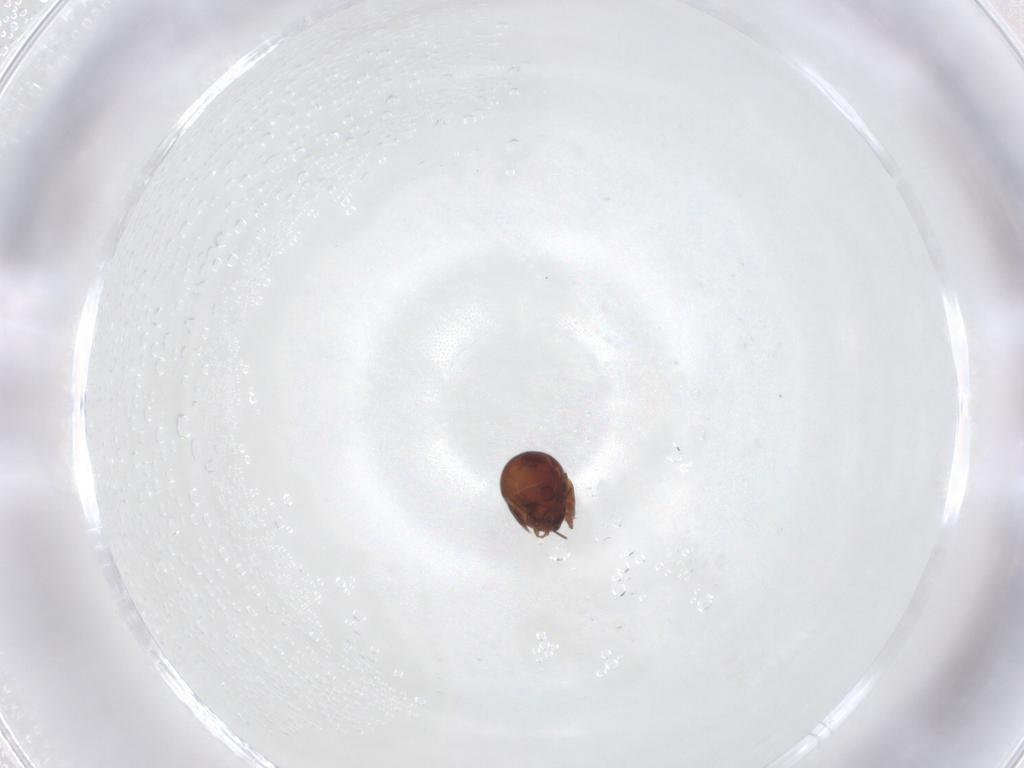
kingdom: Animalia
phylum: Arthropoda
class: Arachnida
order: Sarcoptiformes
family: Galumnidae
